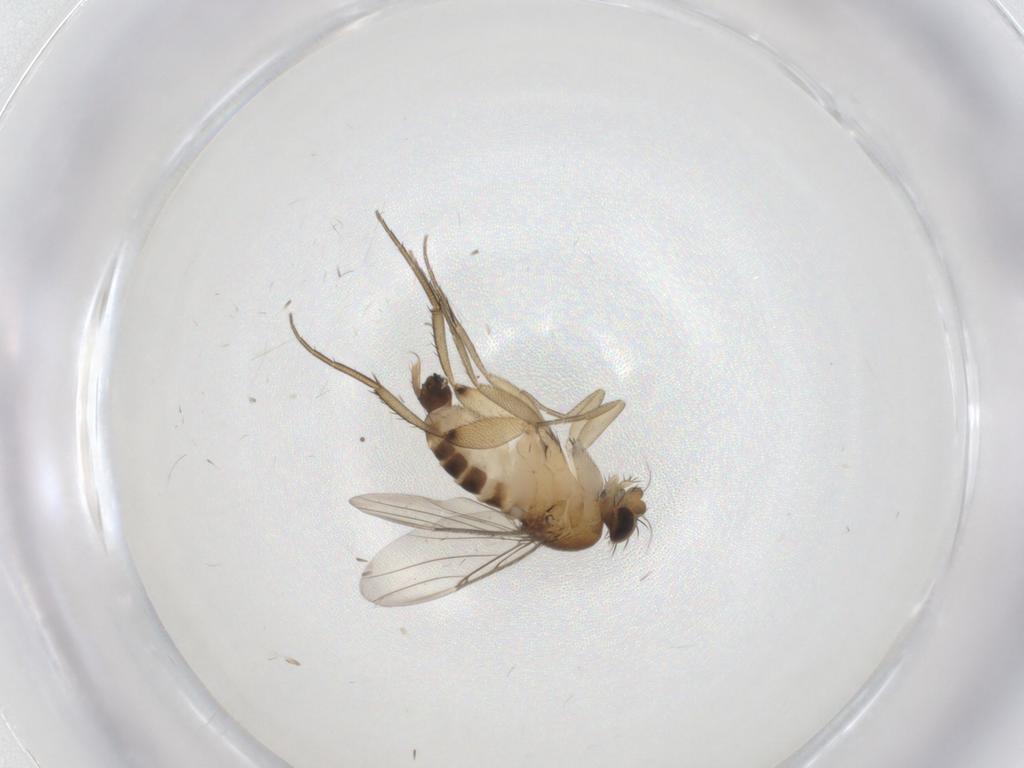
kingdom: Animalia
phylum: Arthropoda
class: Insecta
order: Diptera
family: Phoridae
